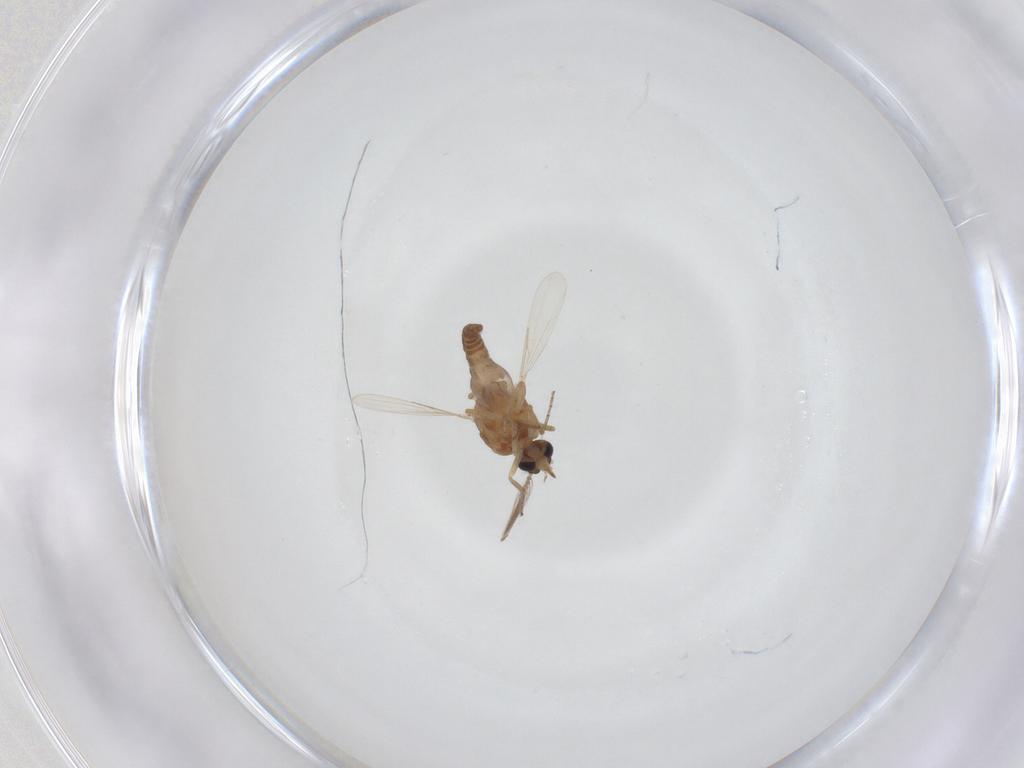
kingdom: Animalia
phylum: Arthropoda
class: Insecta
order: Diptera
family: Ceratopogonidae
